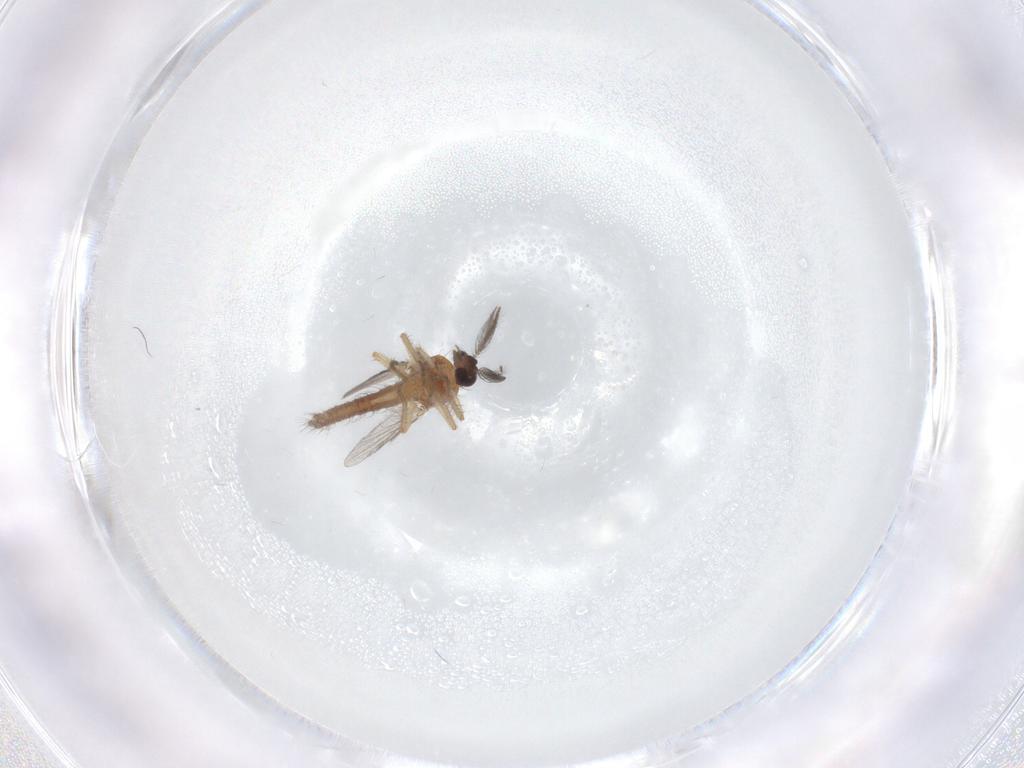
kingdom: Animalia
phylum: Arthropoda
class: Insecta
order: Diptera
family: Ceratopogonidae
